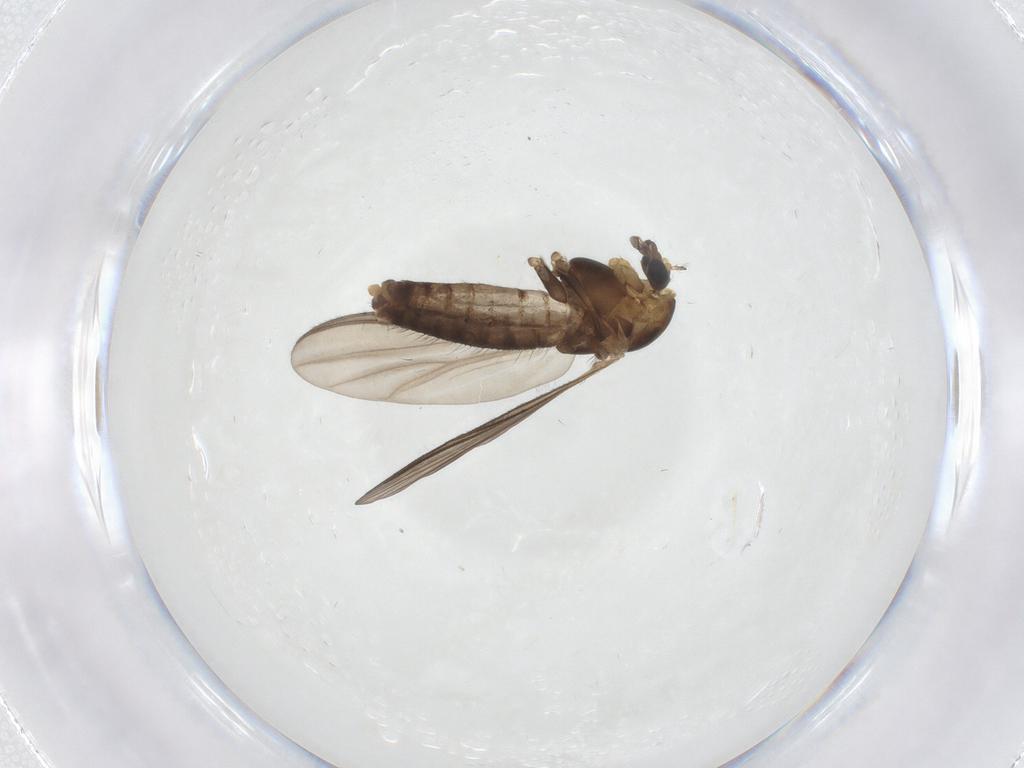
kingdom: Animalia
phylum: Arthropoda
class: Insecta
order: Diptera
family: Chironomidae
